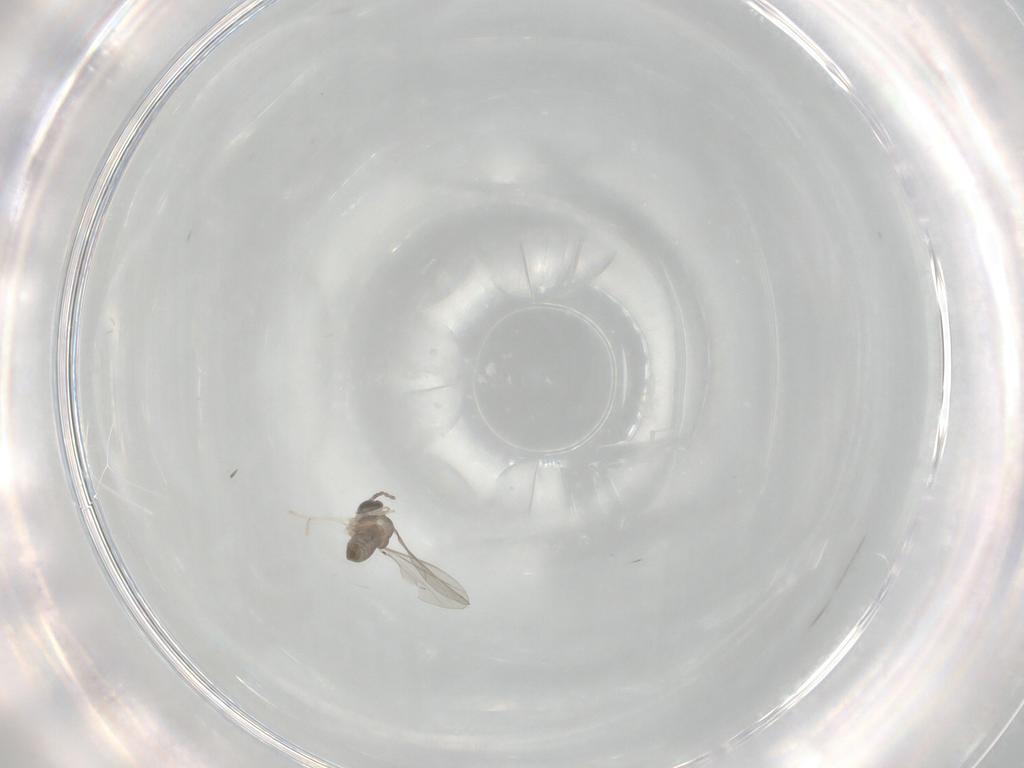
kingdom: Animalia
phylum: Arthropoda
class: Insecta
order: Diptera
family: Cecidomyiidae
